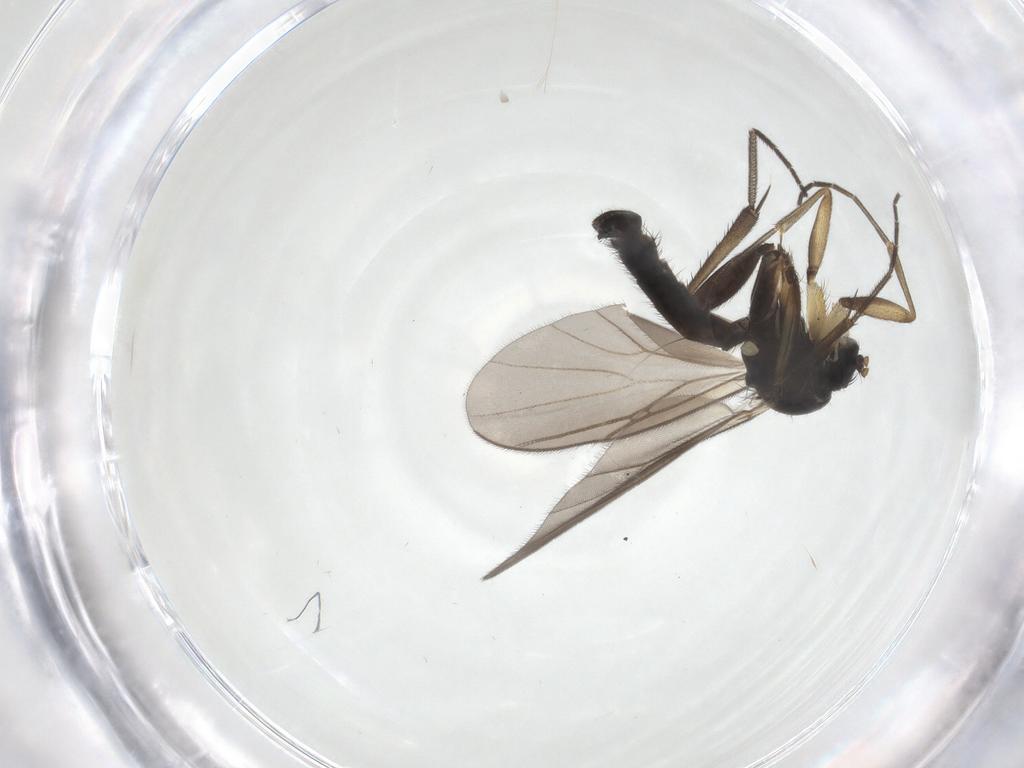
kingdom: Animalia
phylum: Arthropoda
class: Insecta
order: Diptera
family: Mycetophilidae
